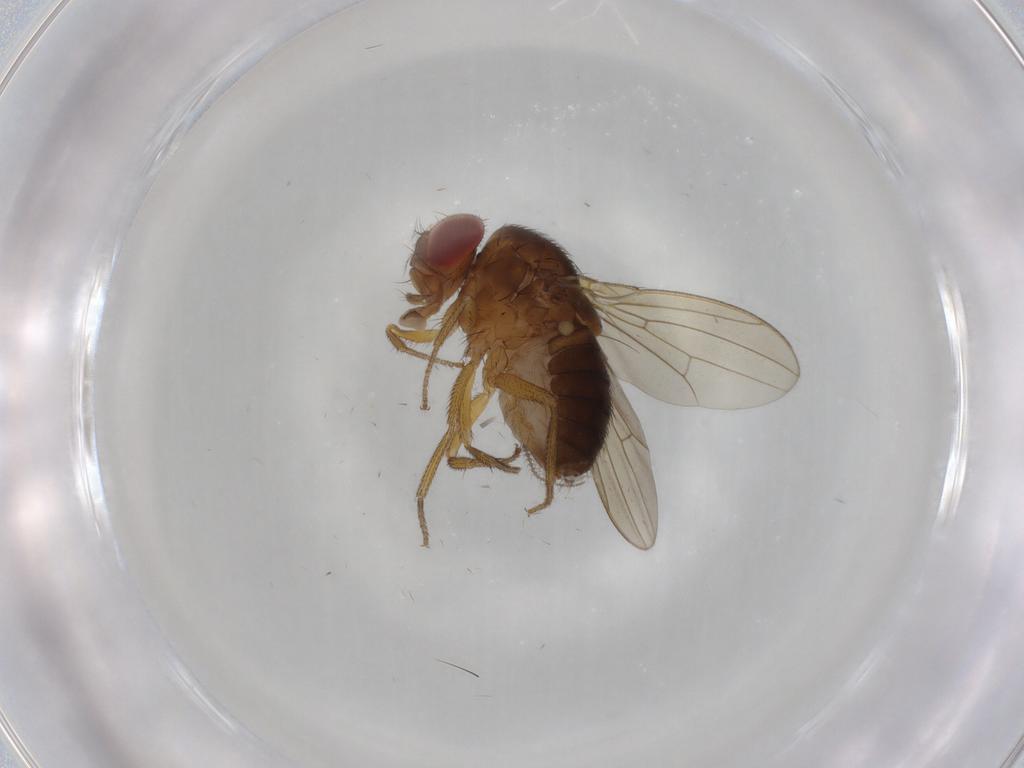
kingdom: Animalia
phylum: Arthropoda
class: Insecta
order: Diptera
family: Drosophilidae
